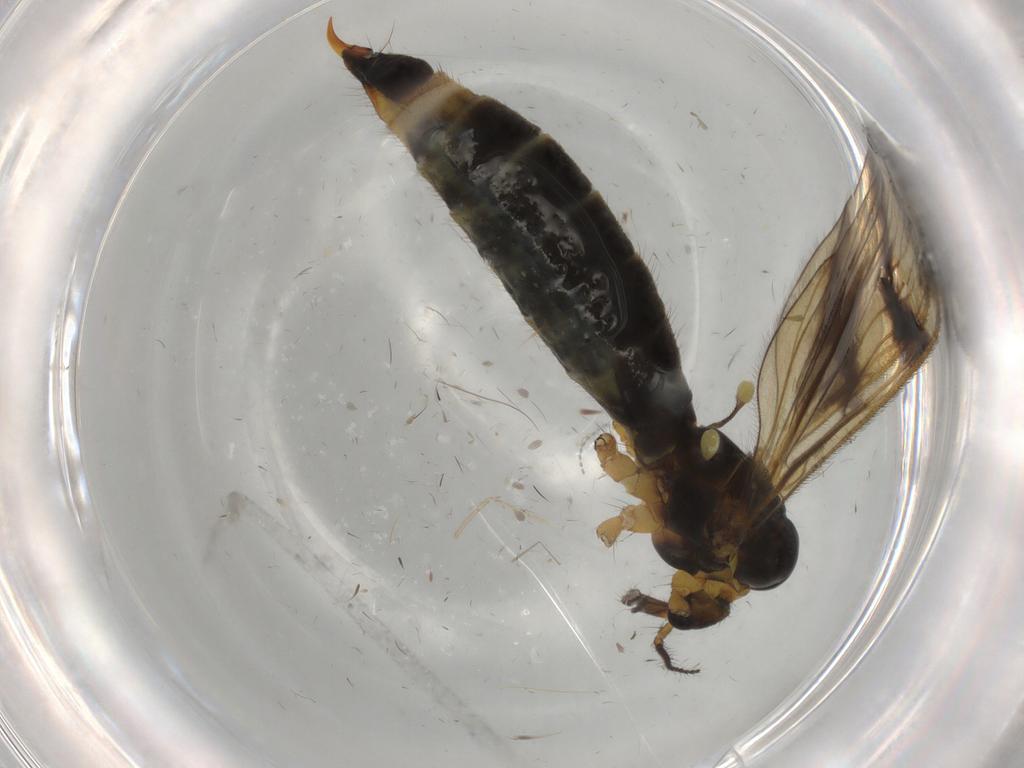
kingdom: Animalia
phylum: Arthropoda
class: Insecta
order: Diptera
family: Limoniidae
